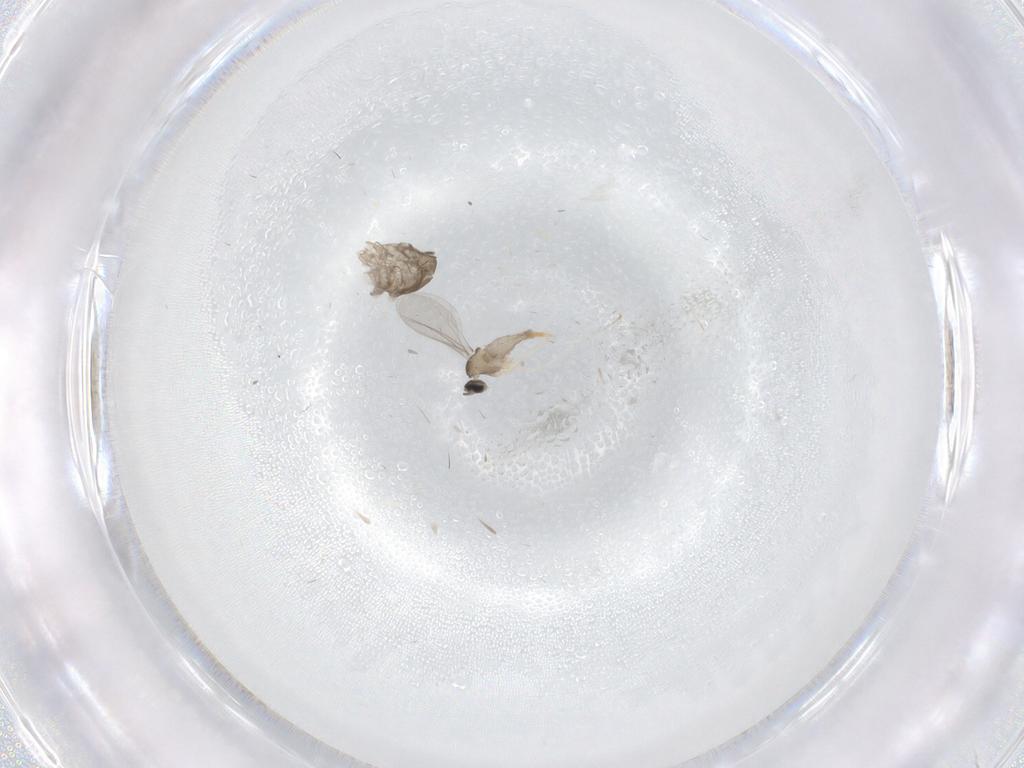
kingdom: Animalia
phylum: Arthropoda
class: Insecta
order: Diptera
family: Cecidomyiidae
